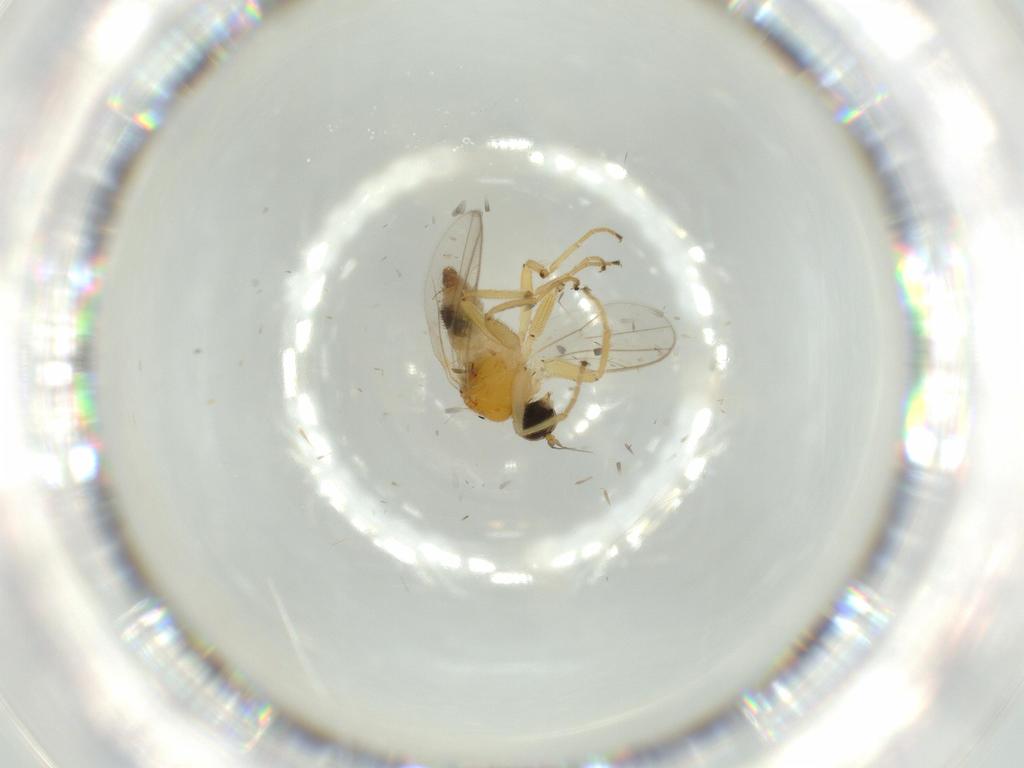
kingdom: Animalia
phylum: Arthropoda
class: Insecta
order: Diptera
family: Hybotidae
